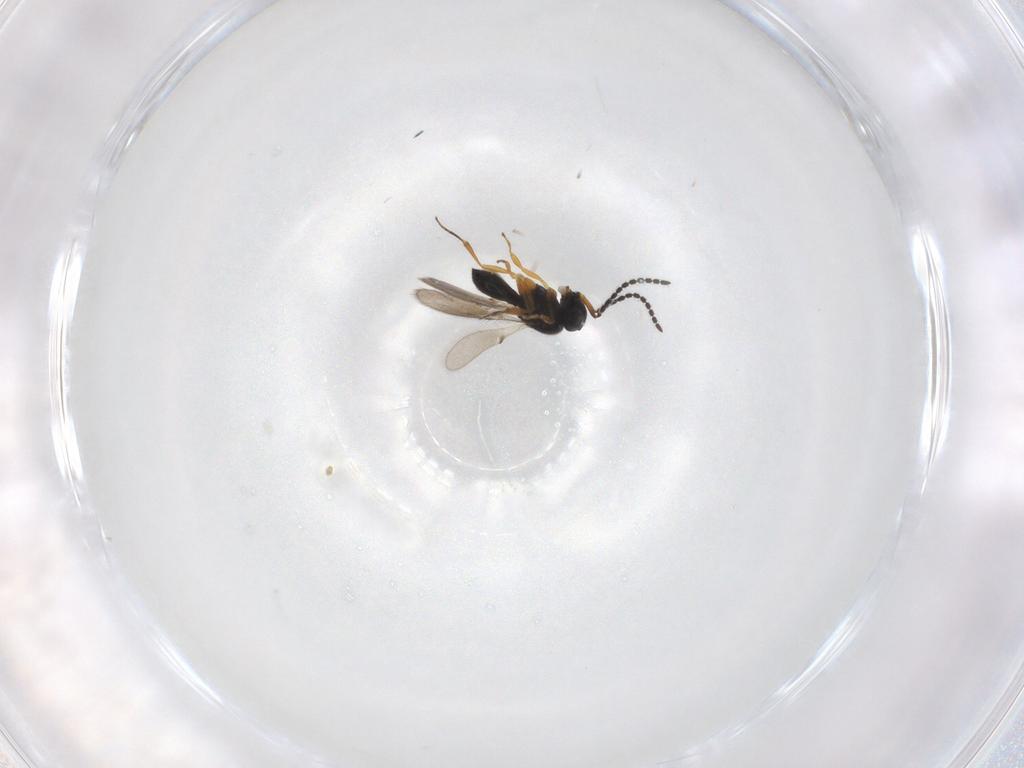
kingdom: Animalia
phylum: Arthropoda
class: Insecta
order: Hymenoptera
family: Scelionidae
